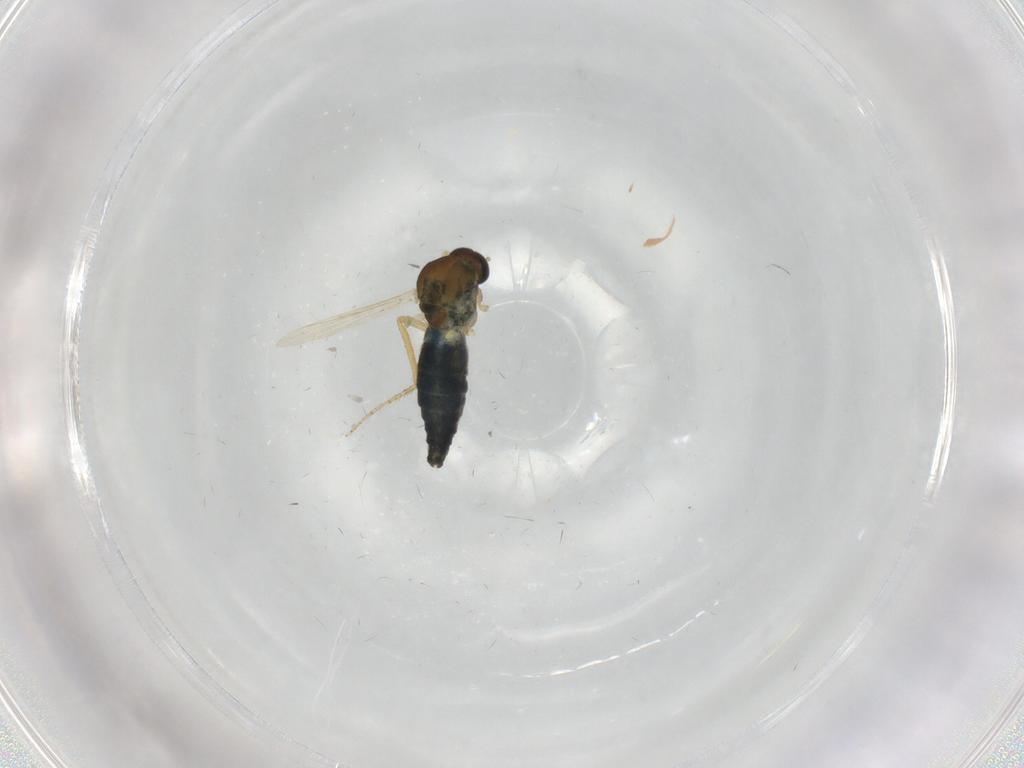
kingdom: Animalia
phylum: Arthropoda
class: Insecta
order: Diptera
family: Ceratopogonidae
